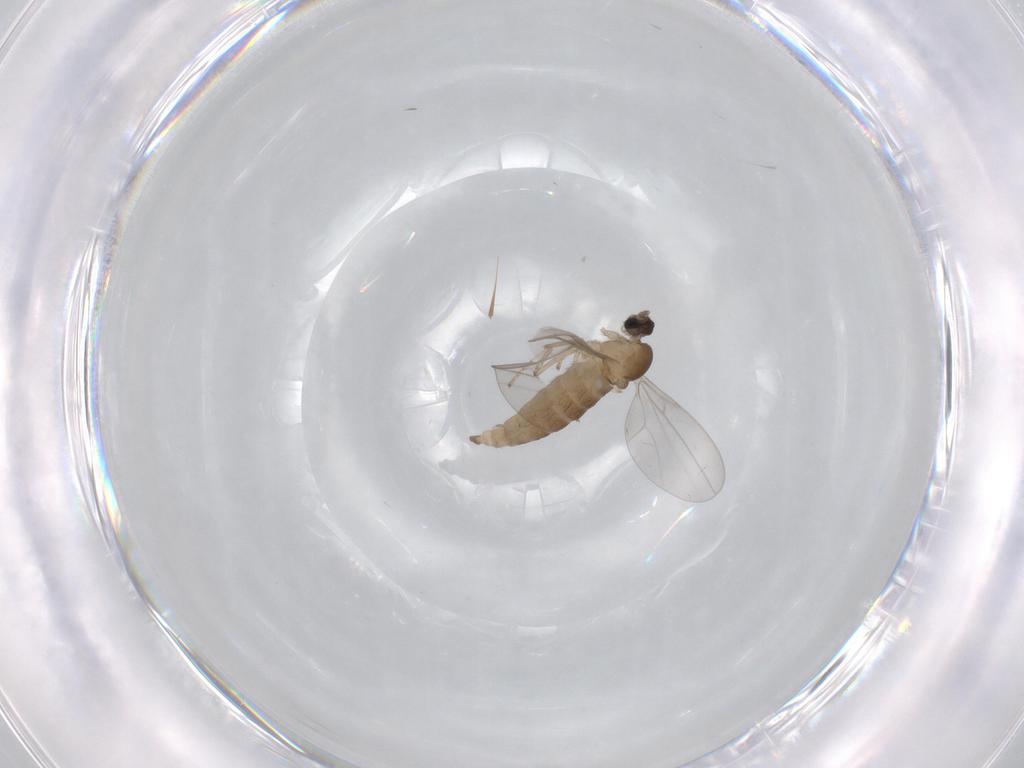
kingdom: Animalia
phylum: Arthropoda
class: Insecta
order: Diptera
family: Cecidomyiidae
